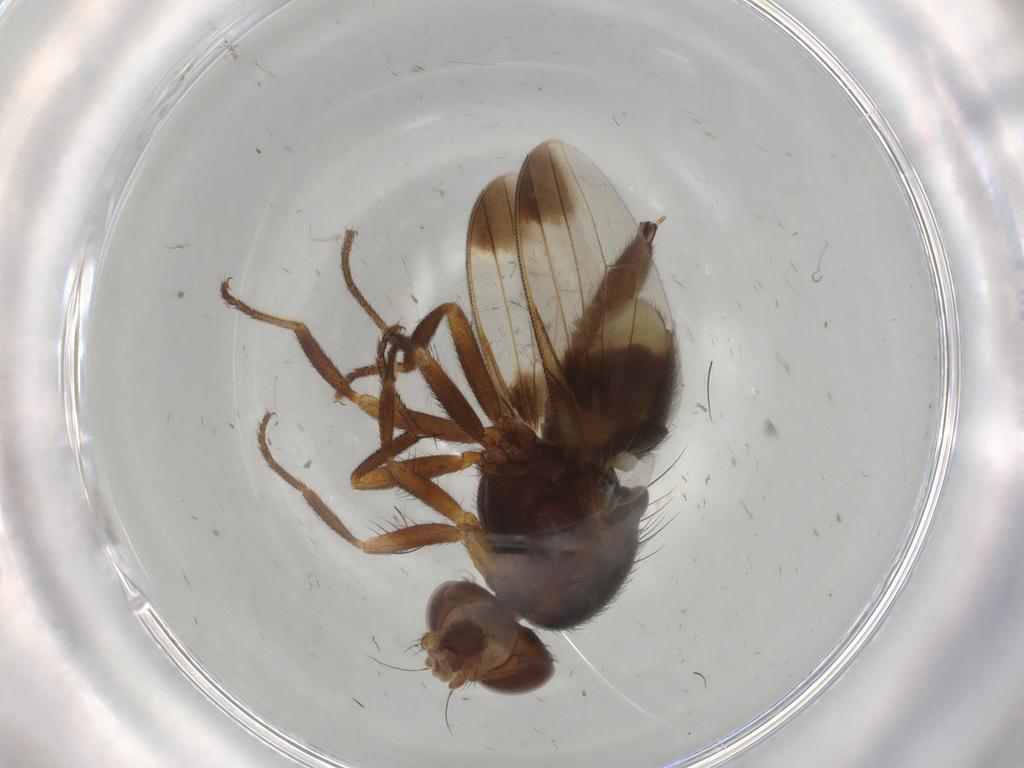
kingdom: Animalia
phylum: Arthropoda
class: Insecta
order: Diptera
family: Ulidiidae
